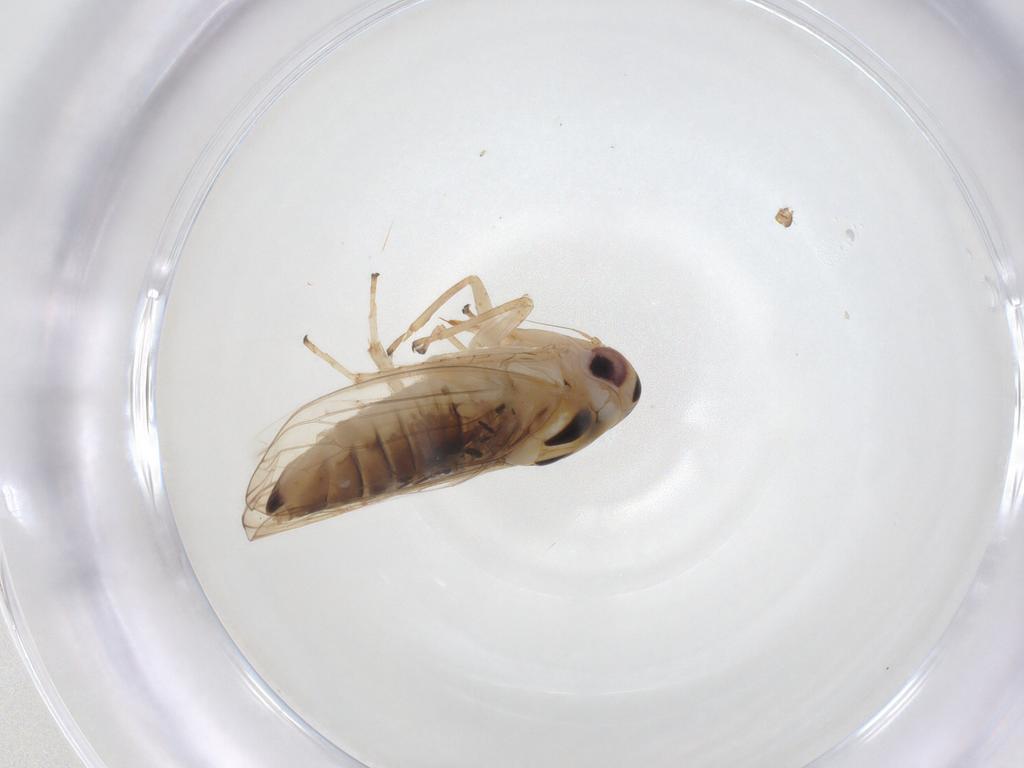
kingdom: Animalia
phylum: Arthropoda
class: Insecta
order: Hemiptera
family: Cicadellidae
